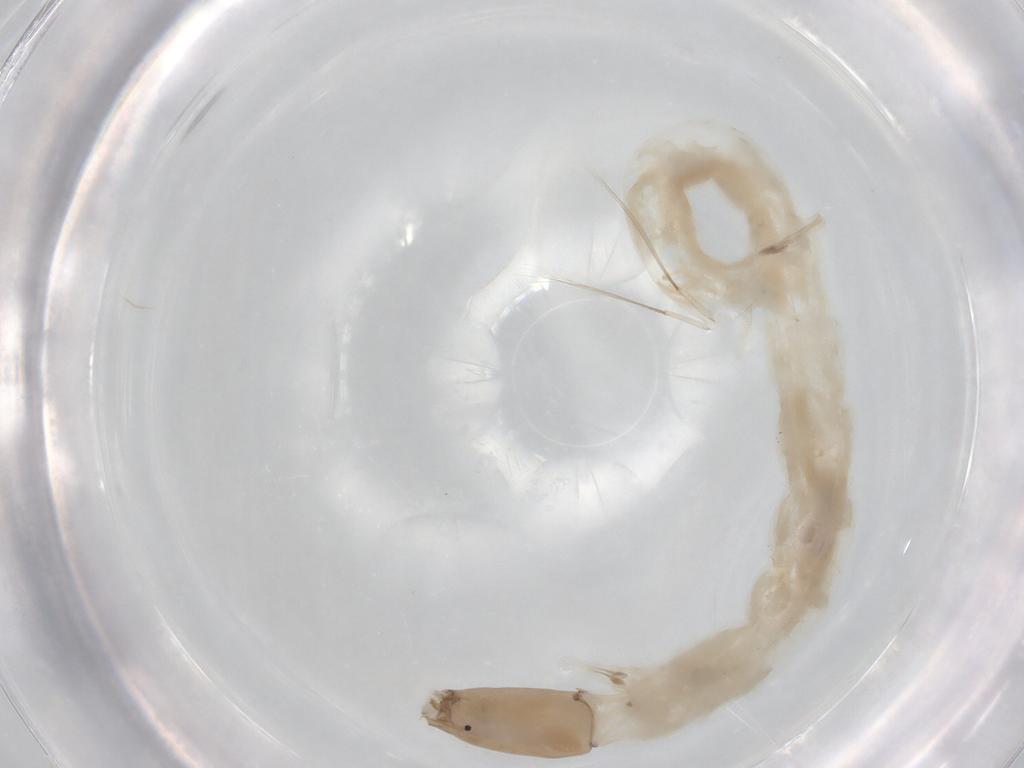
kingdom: Animalia
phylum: Arthropoda
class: Insecta
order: Diptera
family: Chironomidae
